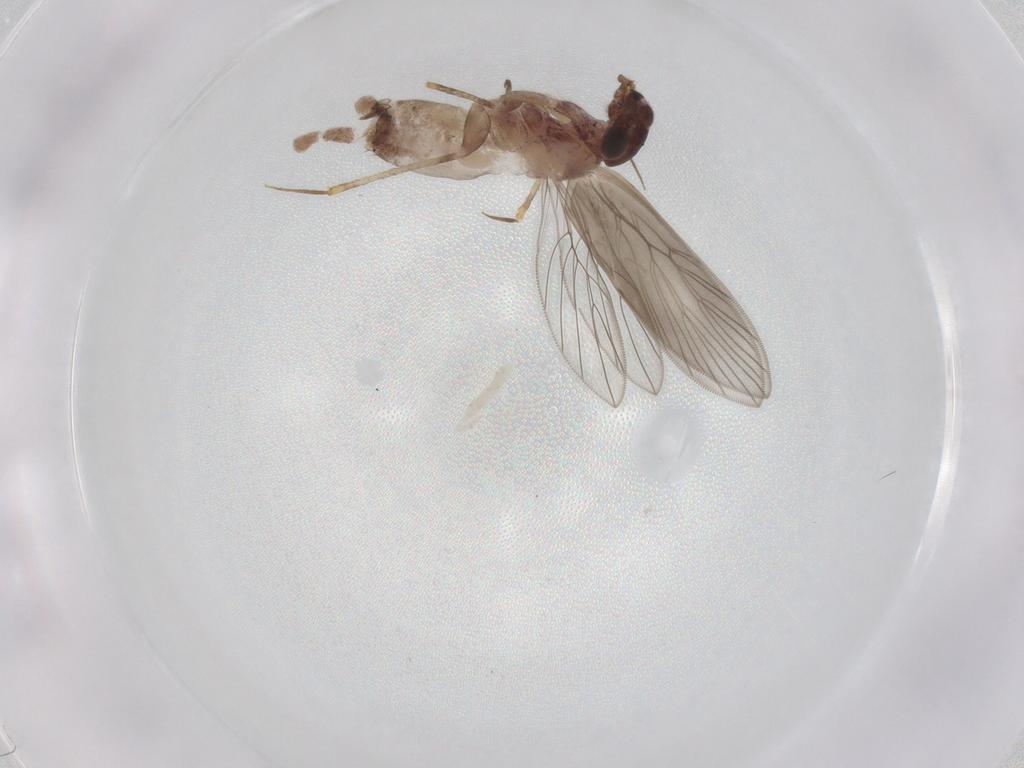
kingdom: Animalia
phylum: Arthropoda
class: Insecta
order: Psocodea
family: Lepidopsocidae
